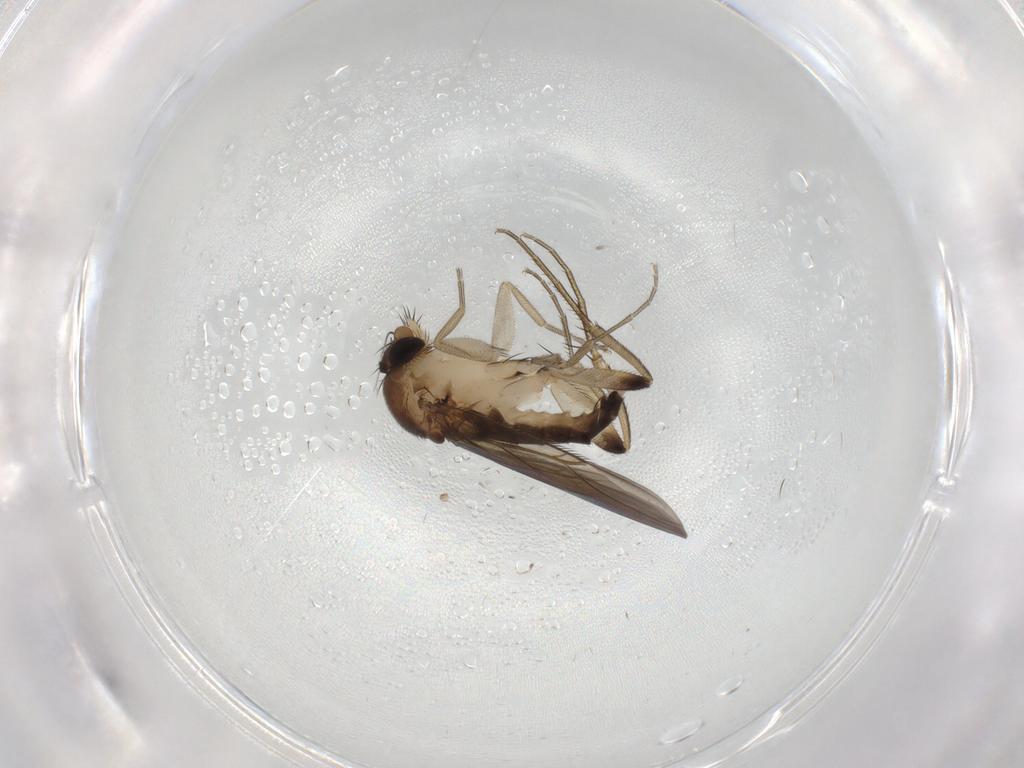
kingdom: Animalia
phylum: Arthropoda
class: Insecta
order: Diptera
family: Phoridae
